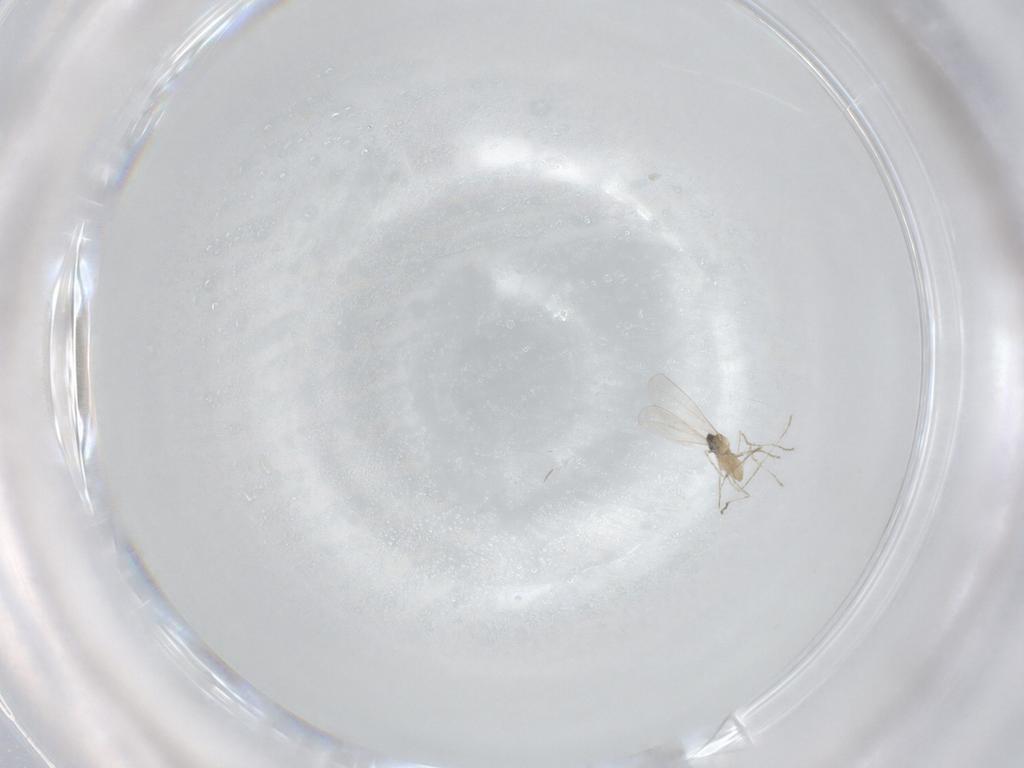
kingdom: Animalia
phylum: Arthropoda
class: Insecta
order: Diptera
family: Cecidomyiidae
